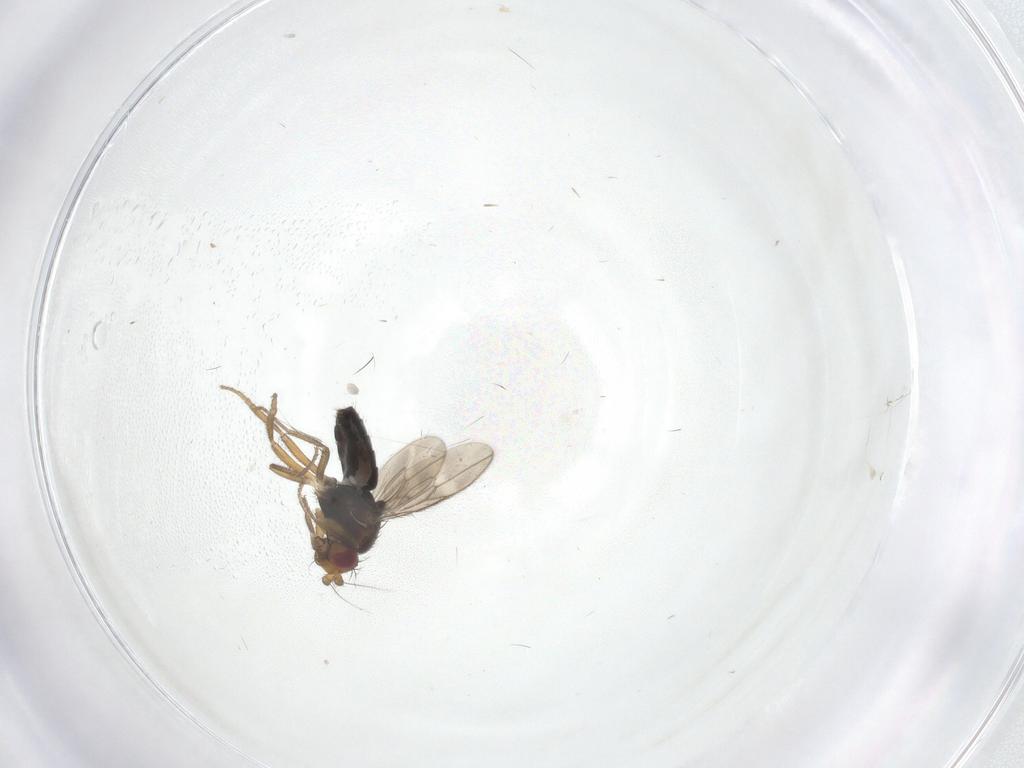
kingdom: Animalia
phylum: Arthropoda
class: Insecta
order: Diptera
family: Sphaeroceridae
